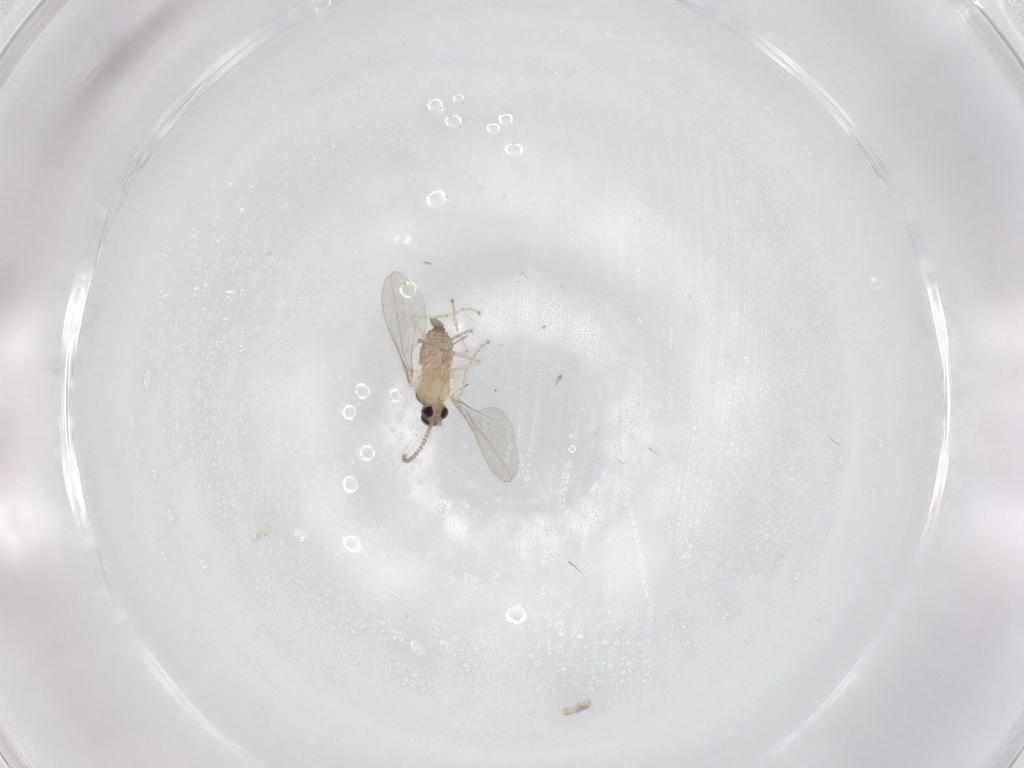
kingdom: Animalia
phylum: Arthropoda
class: Insecta
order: Diptera
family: Cecidomyiidae
